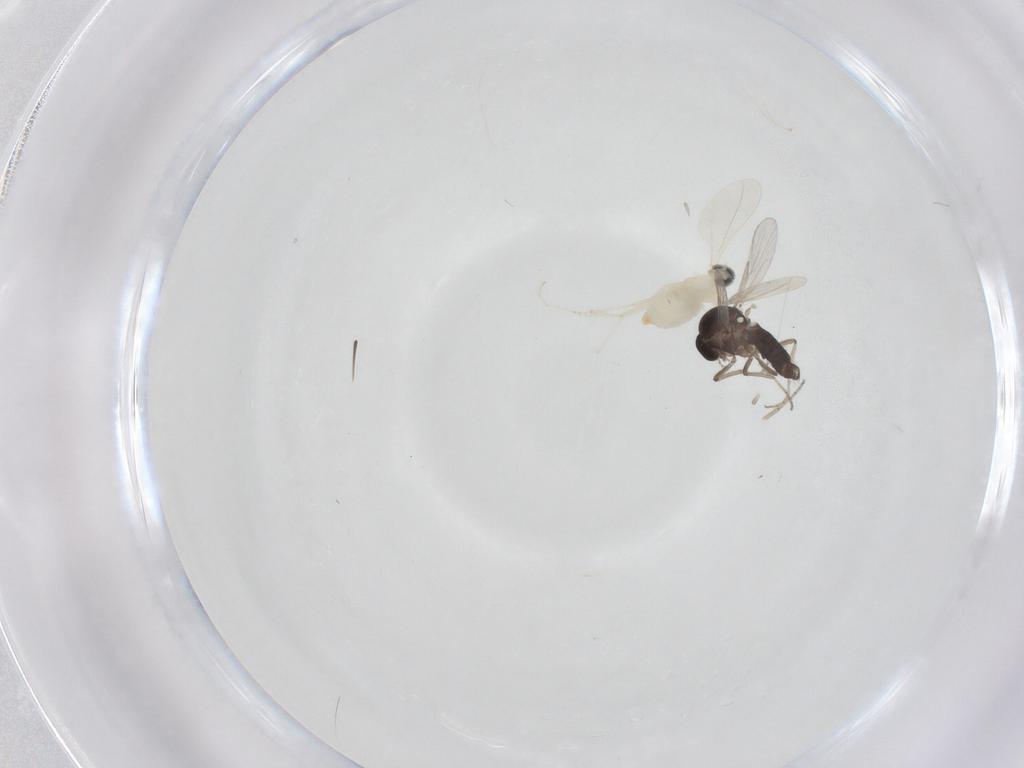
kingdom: Animalia
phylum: Arthropoda
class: Insecta
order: Diptera
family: Ceratopogonidae
